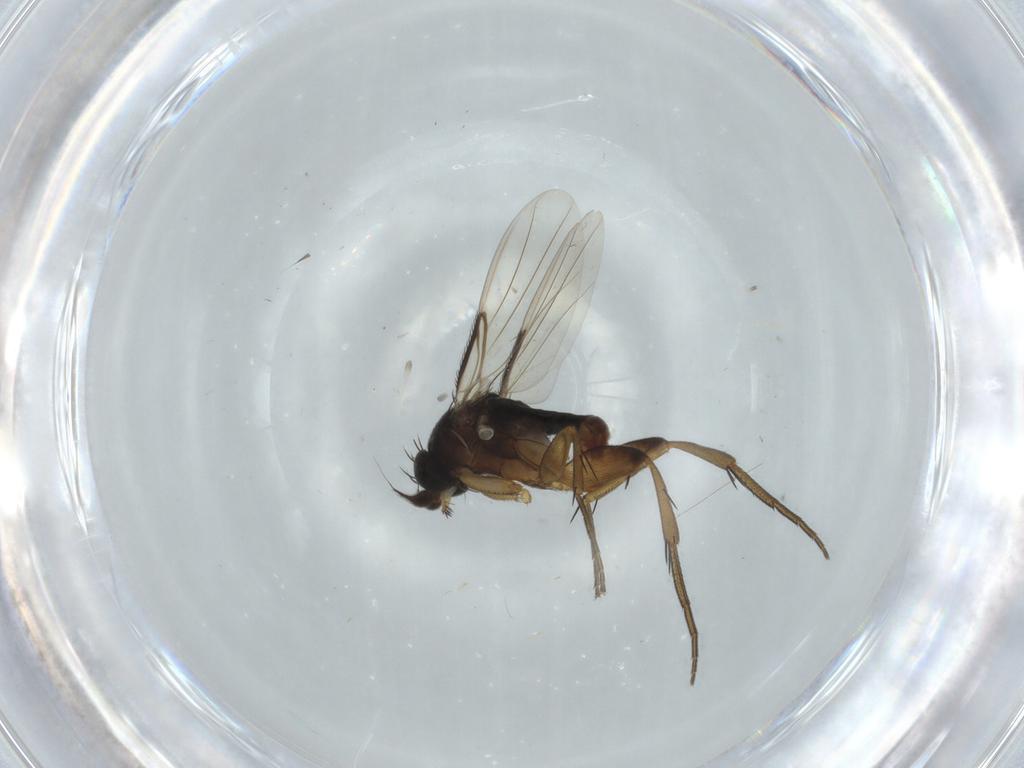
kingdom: Animalia
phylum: Arthropoda
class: Insecta
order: Diptera
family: Phoridae
